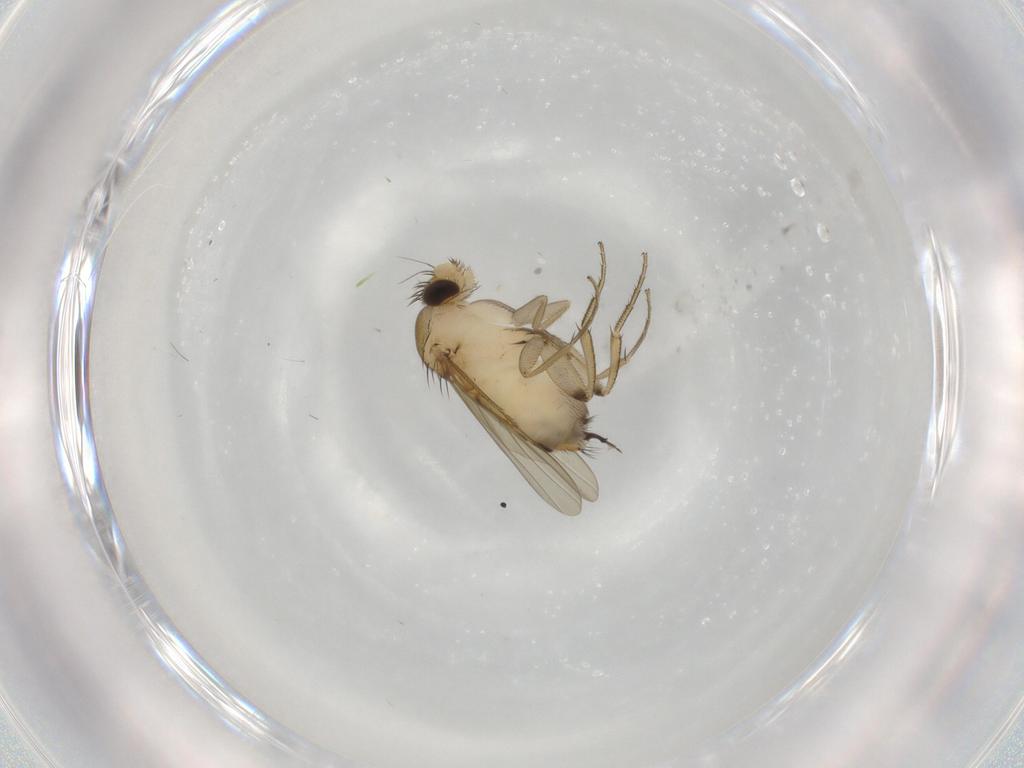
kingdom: Animalia
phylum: Arthropoda
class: Insecta
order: Diptera
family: Phoridae
